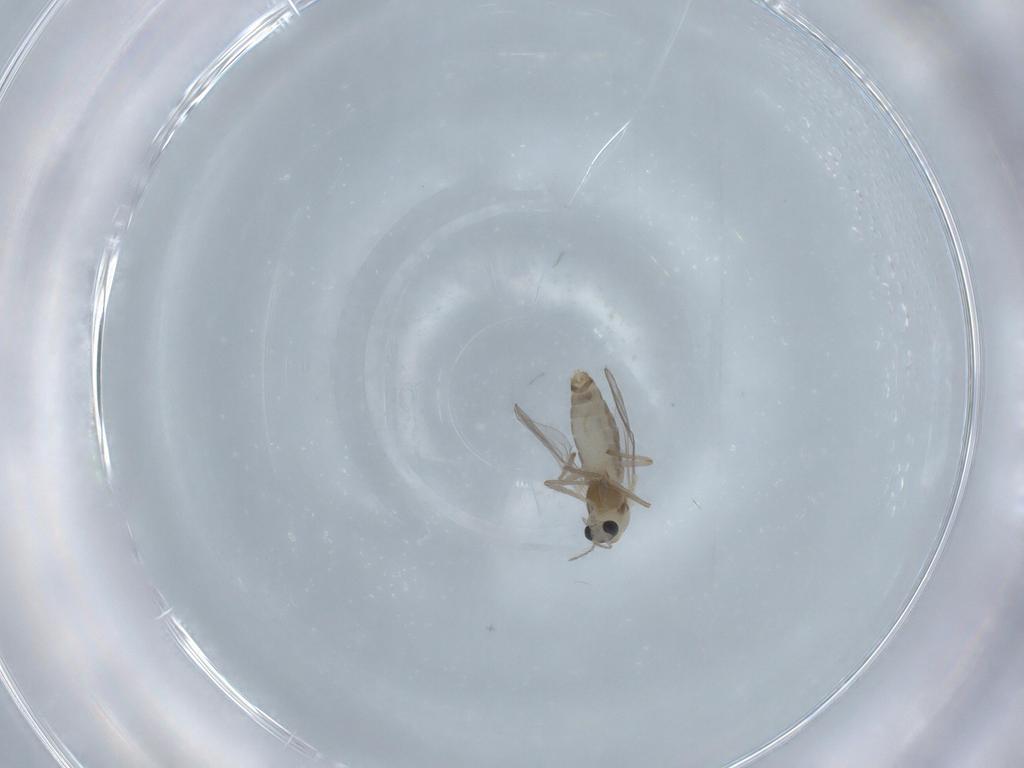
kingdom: Animalia
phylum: Arthropoda
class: Insecta
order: Diptera
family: Chironomidae
